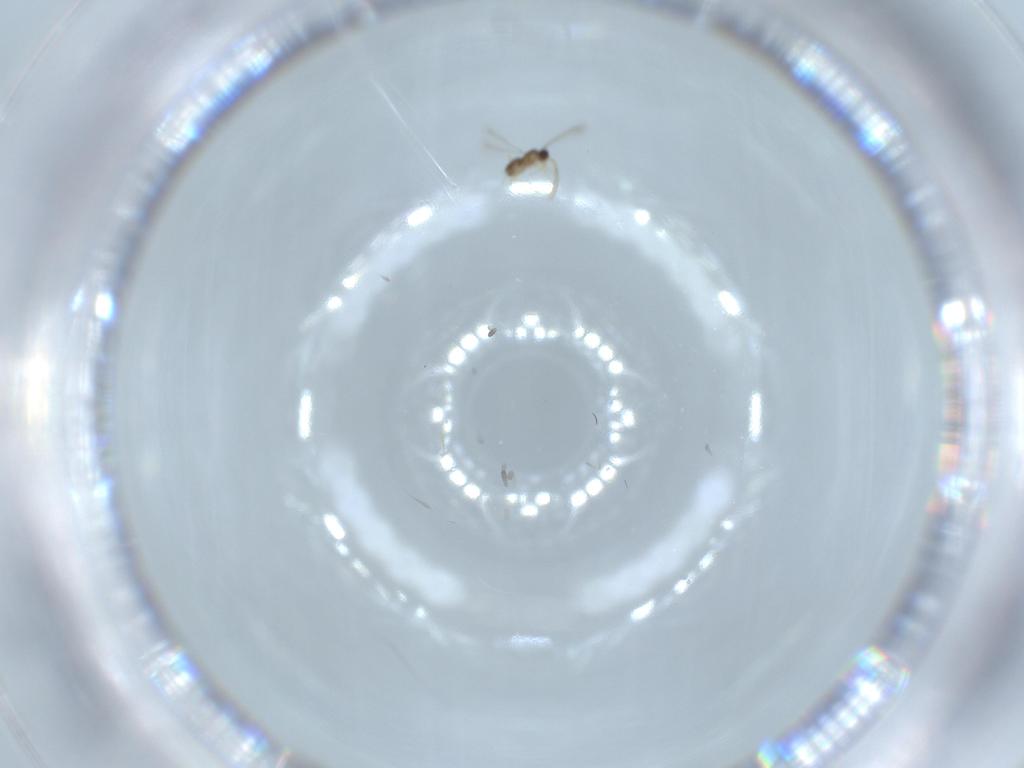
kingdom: Animalia
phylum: Arthropoda
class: Insecta
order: Hymenoptera
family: Mymaridae
